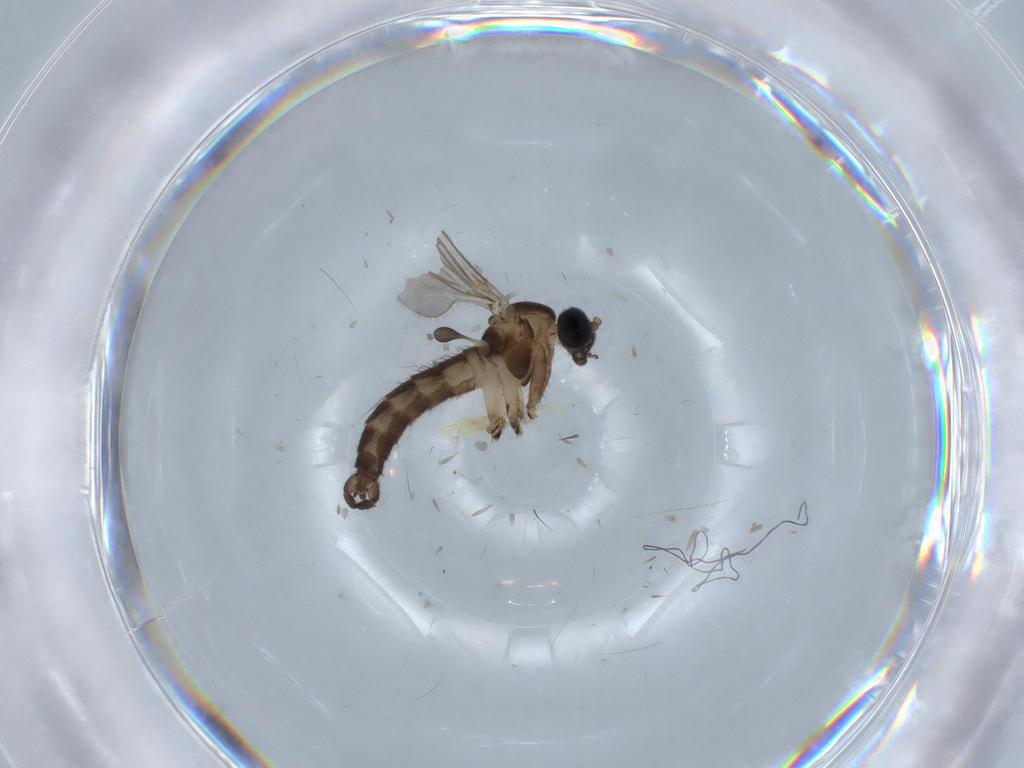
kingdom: Animalia
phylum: Arthropoda
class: Insecta
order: Diptera
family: Sciaridae
